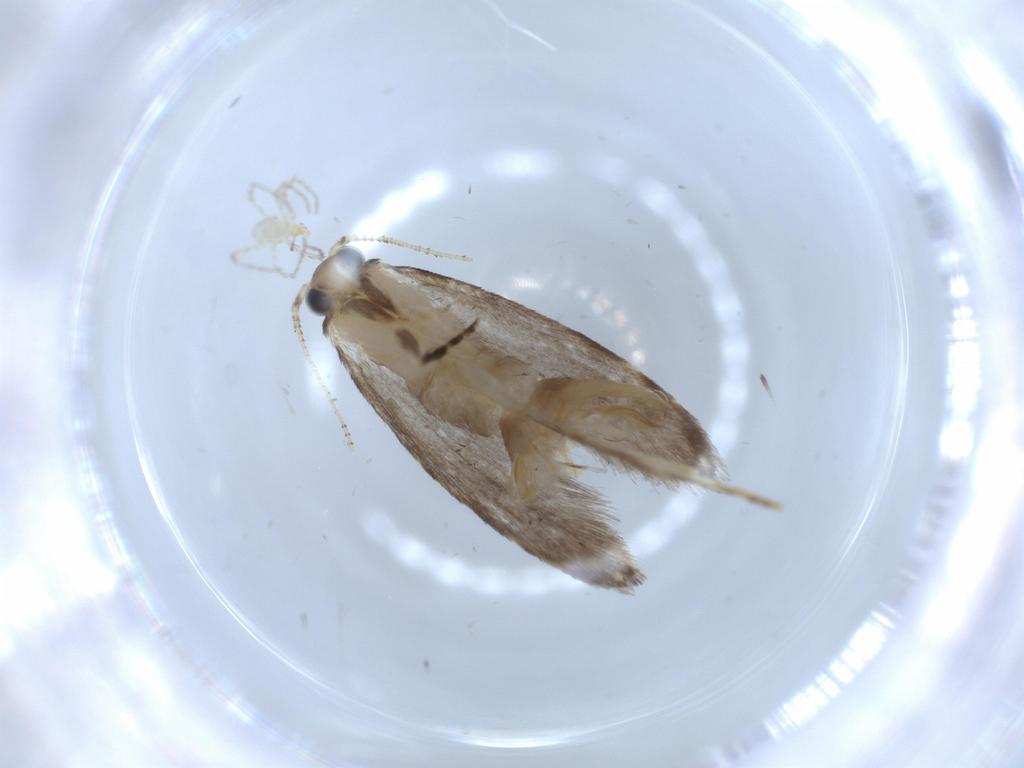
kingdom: Animalia
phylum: Arthropoda
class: Insecta
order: Lepidoptera
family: Tineidae
